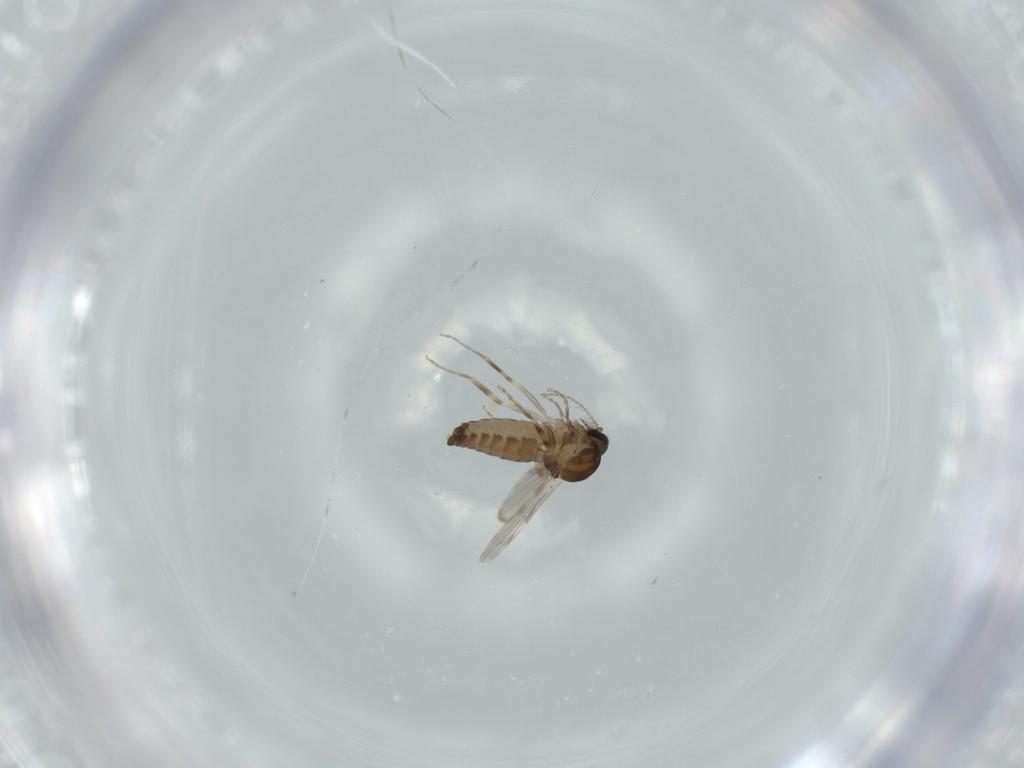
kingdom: Animalia
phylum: Arthropoda
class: Insecta
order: Diptera
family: Ceratopogonidae
